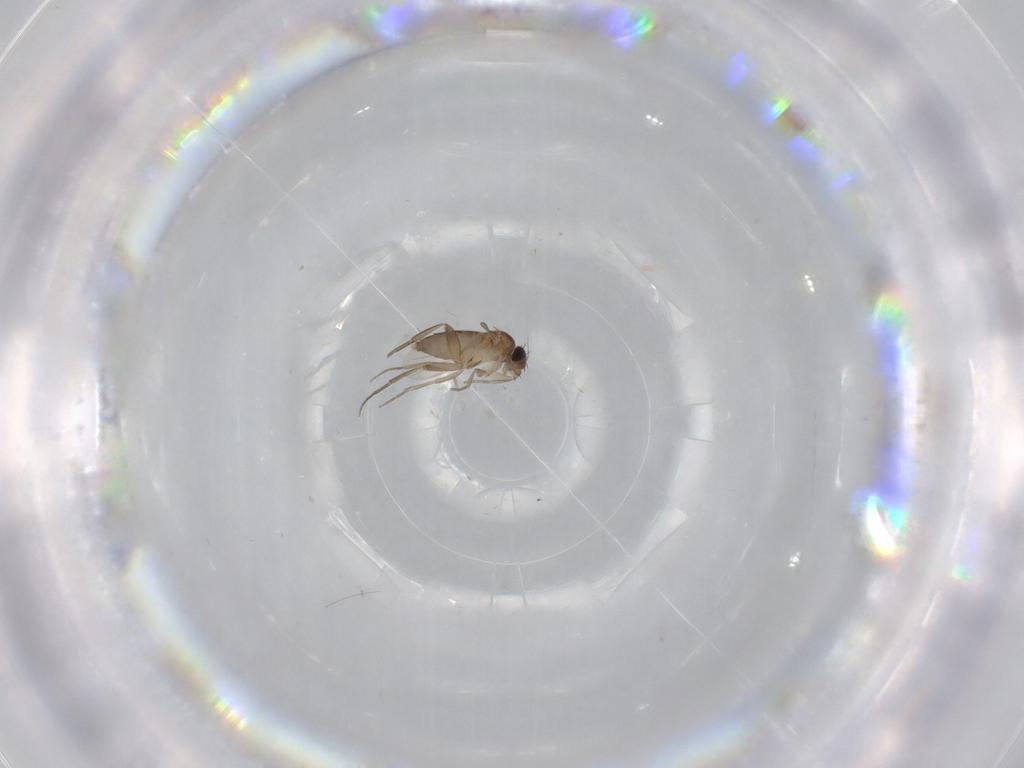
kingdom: Animalia
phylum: Arthropoda
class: Insecta
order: Diptera
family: Phoridae
